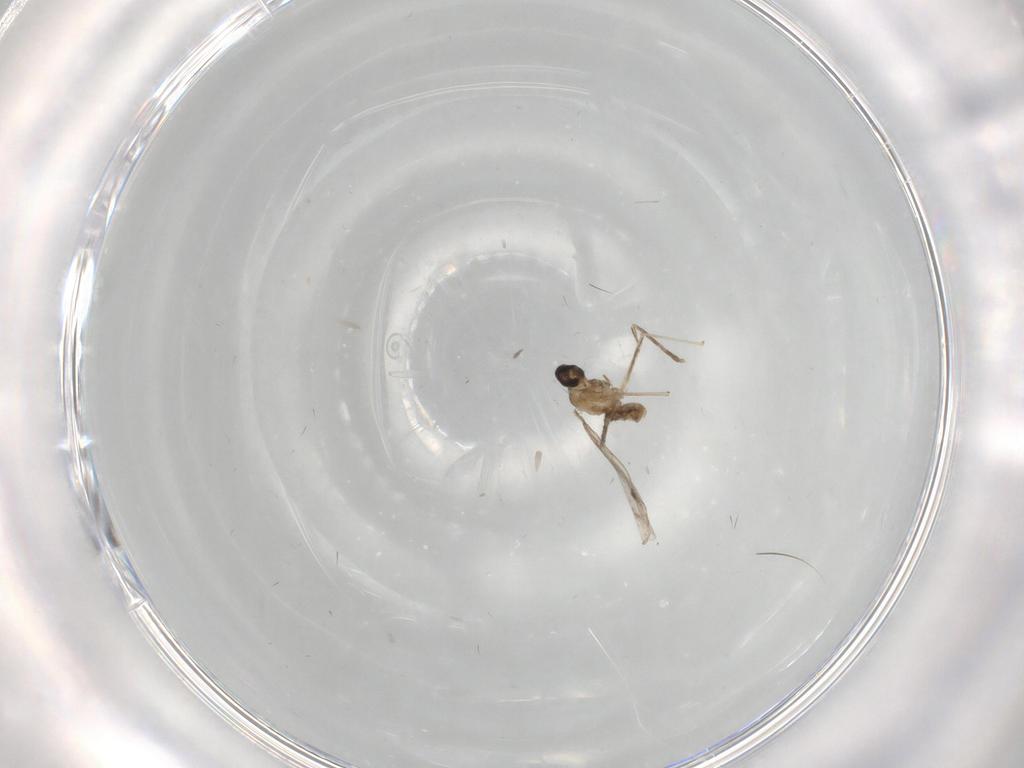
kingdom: Animalia
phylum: Arthropoda
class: Insecta
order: Diptera
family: Cecidomyiidae
